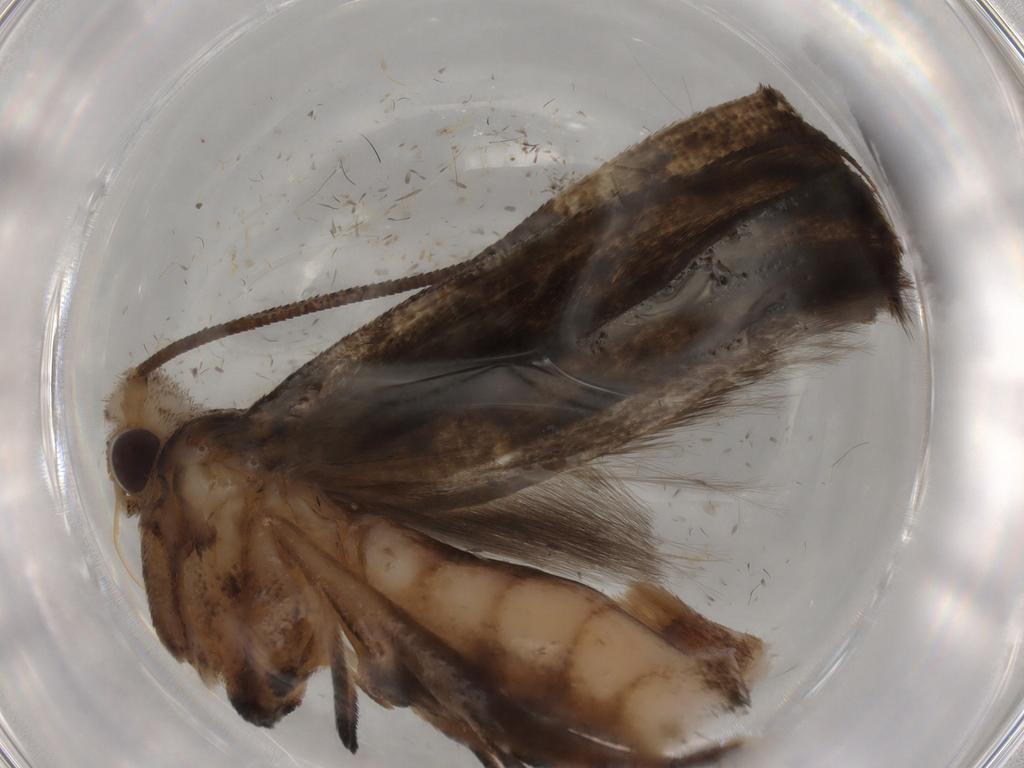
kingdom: Animalia
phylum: Arthropoda
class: Insecta
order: Lepidoptera
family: Yponomeutidae
